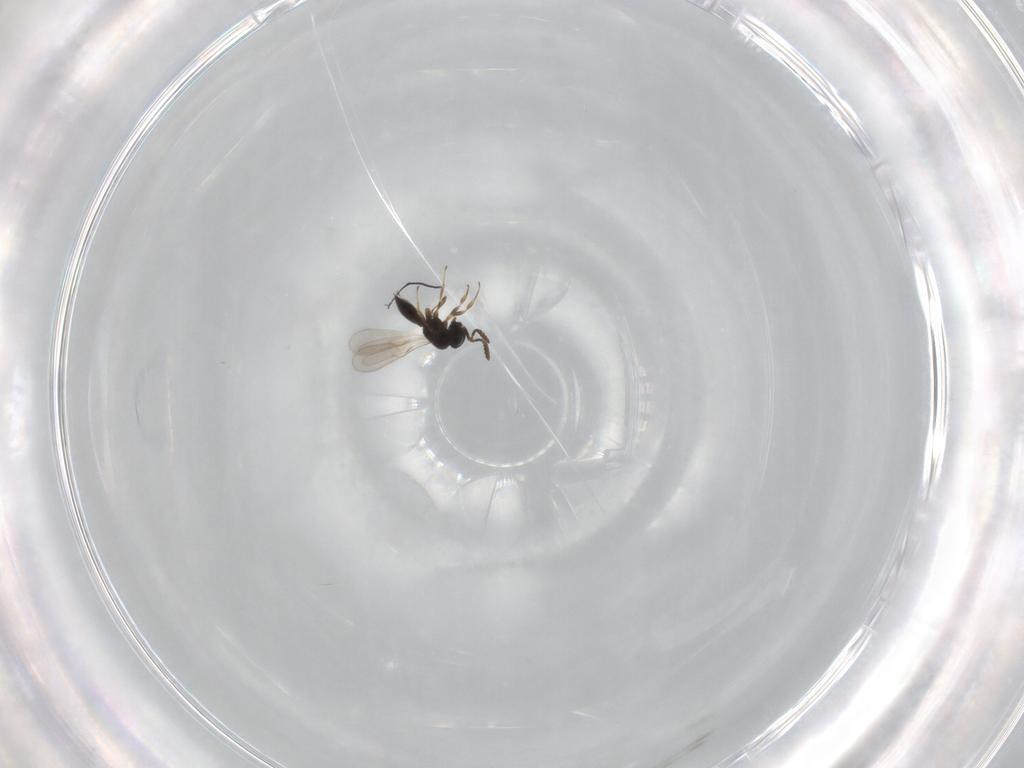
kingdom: Animalia
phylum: Arthropoda
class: Insecta
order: Hymenoptera
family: Scelionidae
